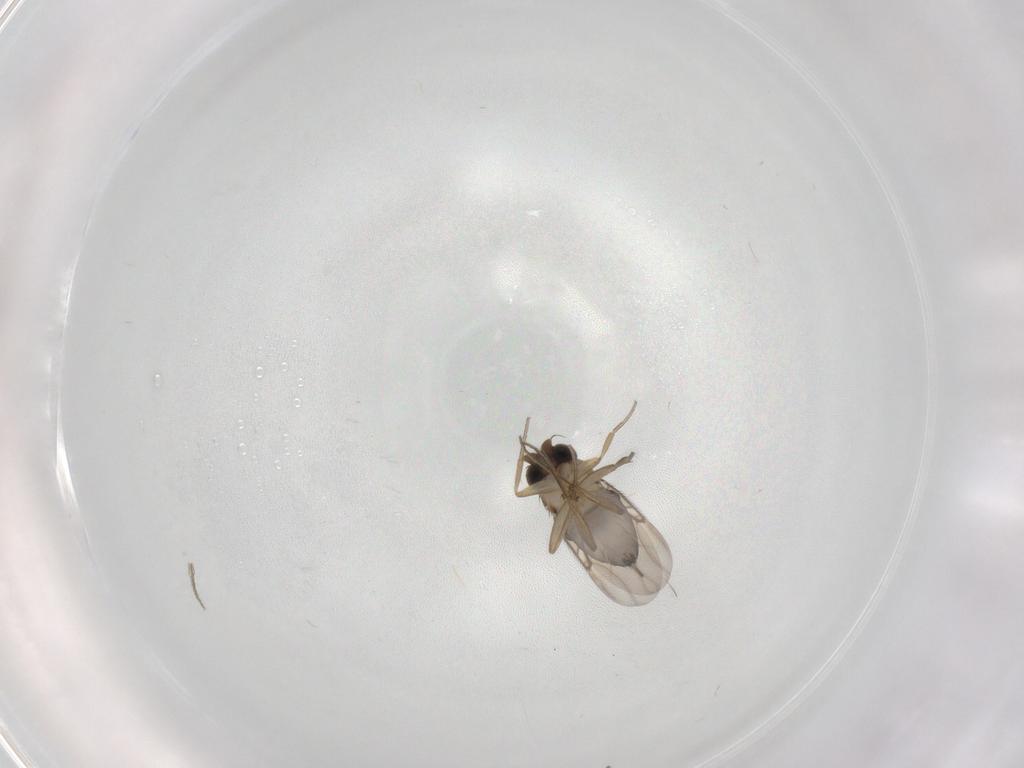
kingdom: Animalia
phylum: Arthropoda
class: Insecta
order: Diptera
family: Phoridae
